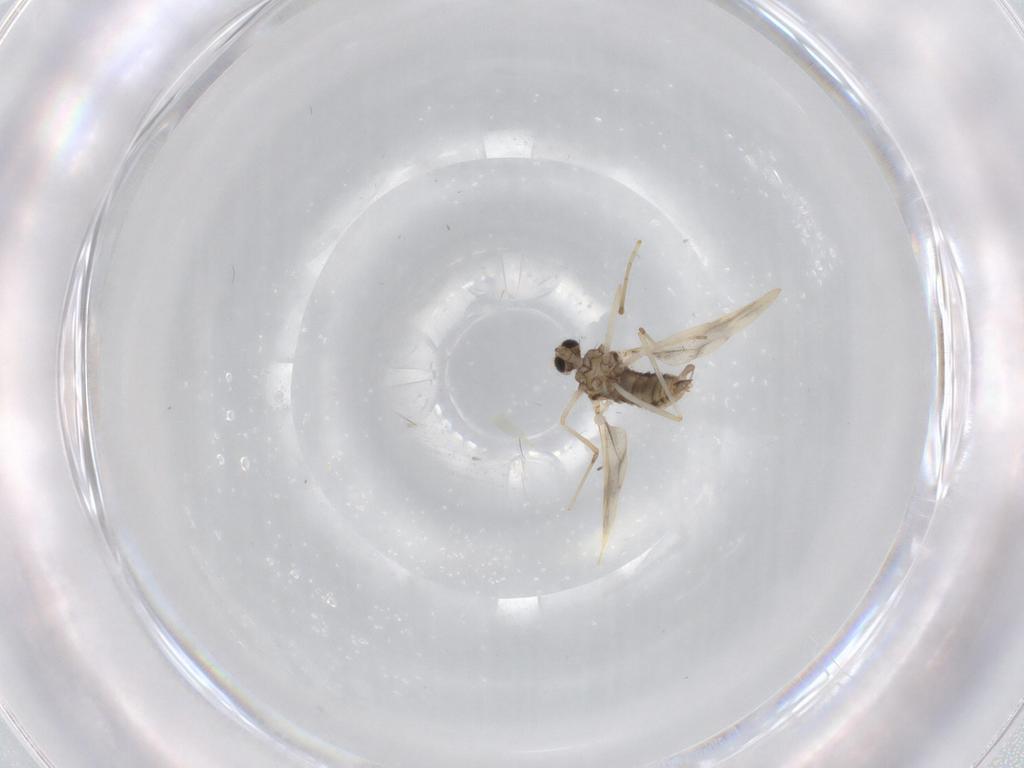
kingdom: Animalia
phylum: Arthropoda
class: Insecta
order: Diptera
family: Cecidomyiidae
